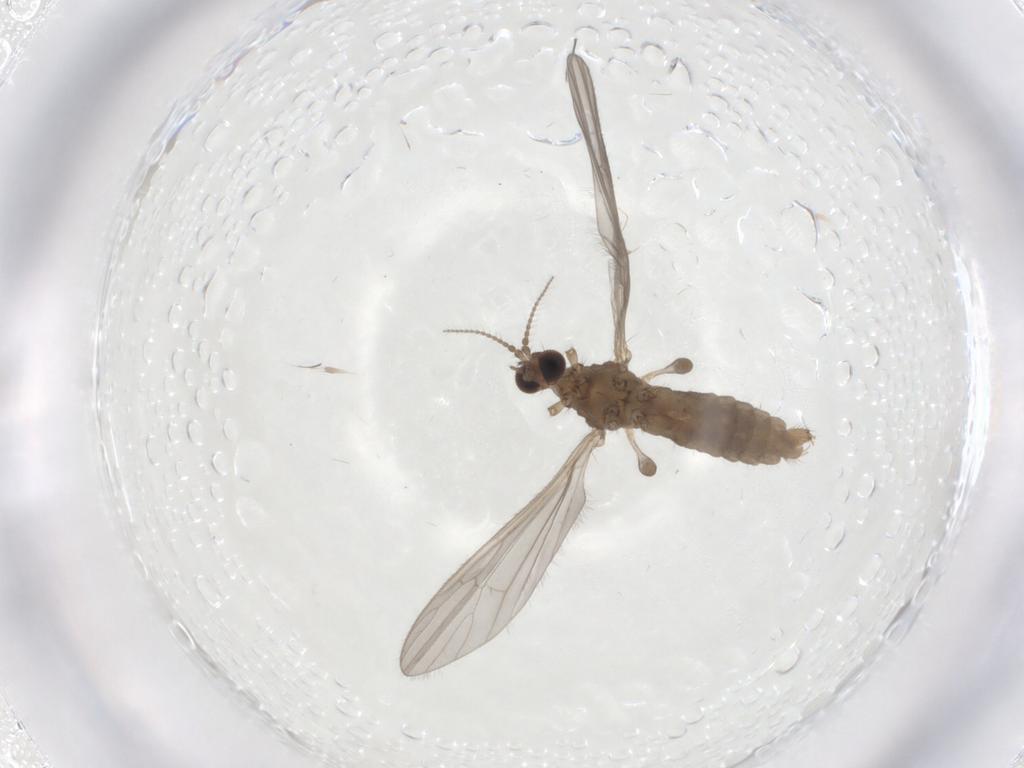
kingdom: Animalia
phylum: Arthropoda
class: Insecta
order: Diptera
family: Limoniidae
